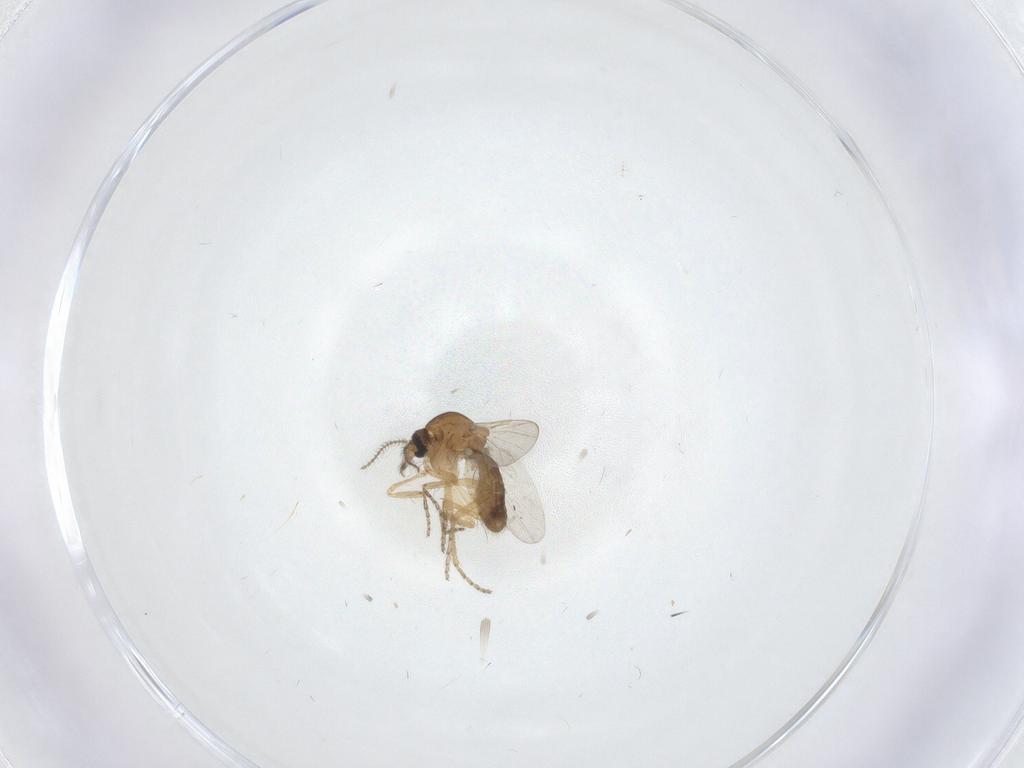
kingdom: Animalia
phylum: Arthropoda
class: Insecta
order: Diptera
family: Ceratopogonidae
